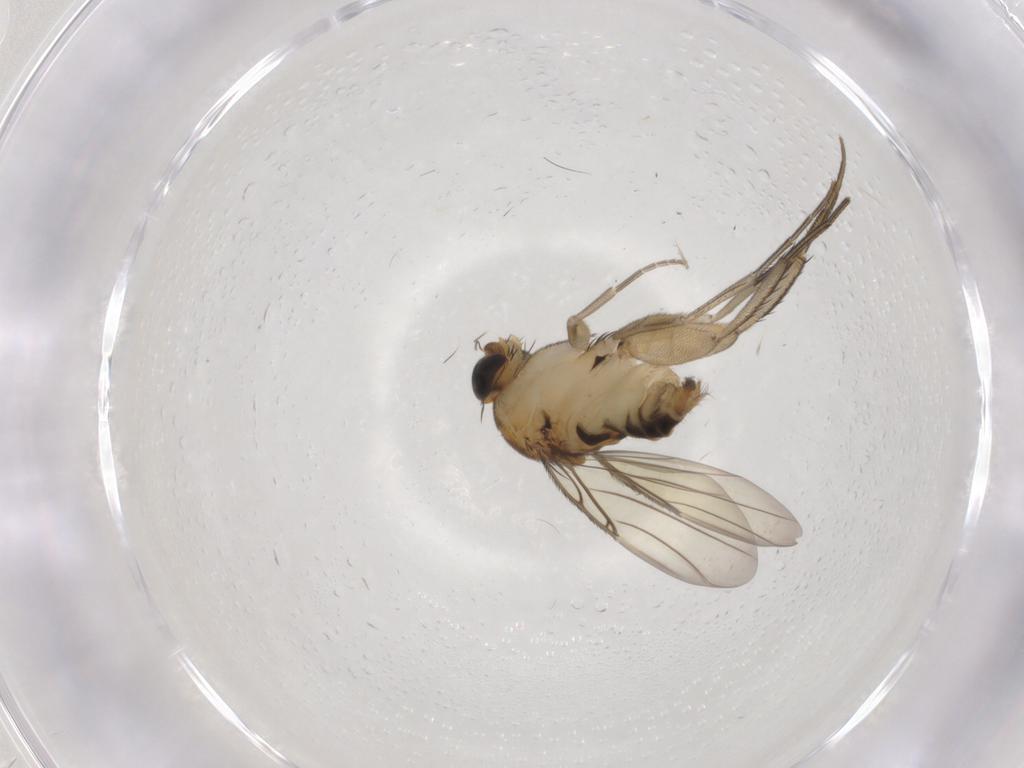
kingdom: Animalia
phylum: Arthropoda
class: Insecta
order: Diptera
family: Phoridae
